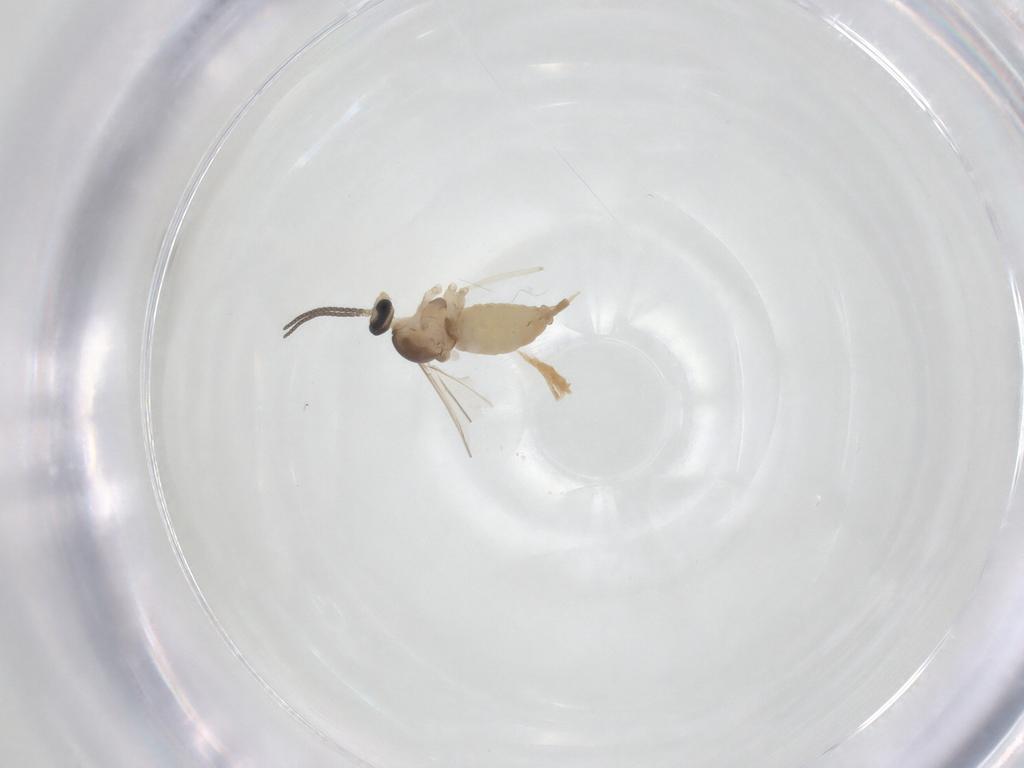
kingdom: Animalia
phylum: Arthropoda
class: Insecta
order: Diptera
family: Cecidomyiidae
